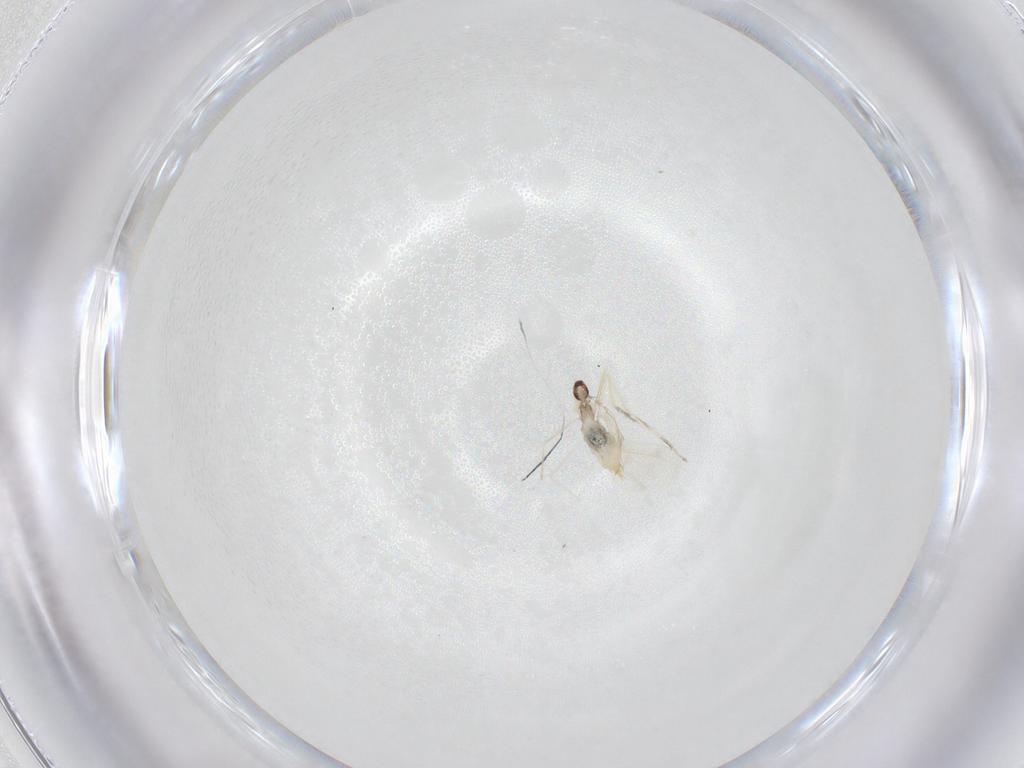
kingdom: Animalia
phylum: Arthropoda
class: Insecta
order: Diptera
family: Cecidomyiidae
